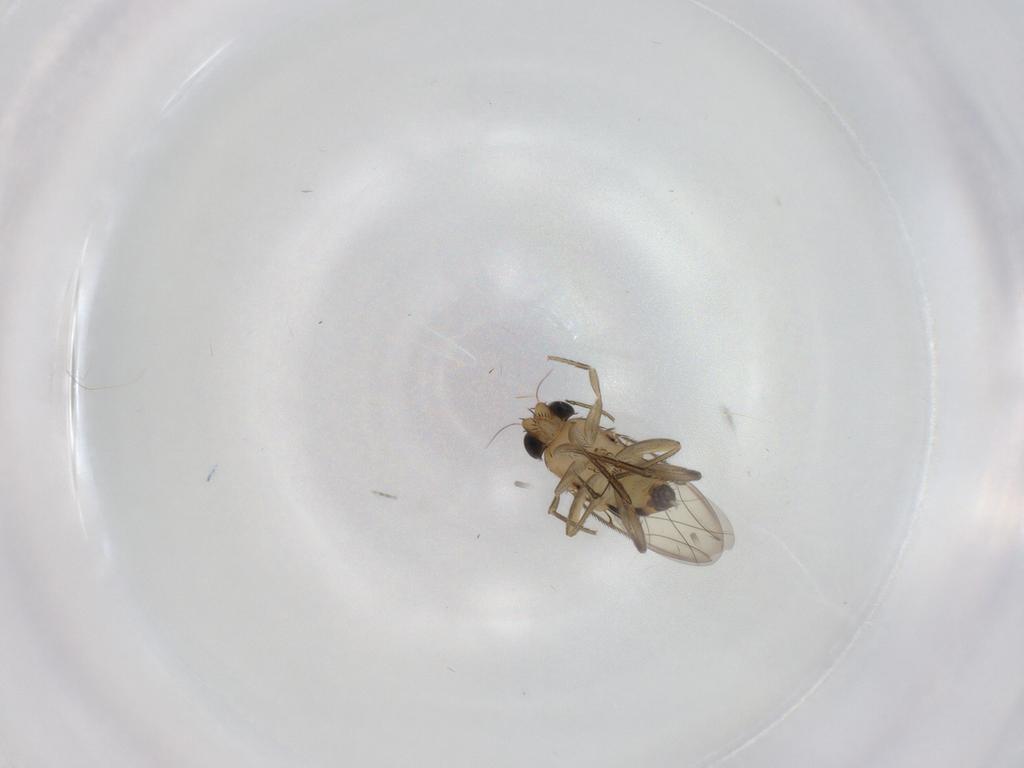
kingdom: Animalia
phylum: Arthropoda
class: Insecta
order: Diptera
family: Phoridae
